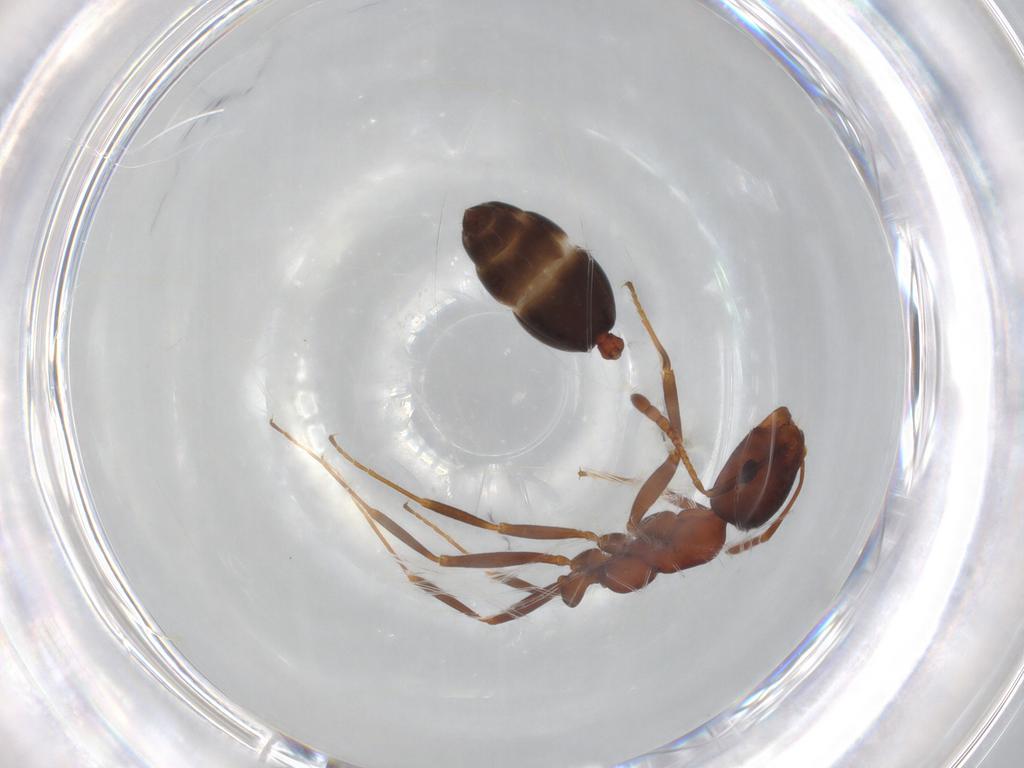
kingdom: Animalia
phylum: Arthropoda
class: Insecta
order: Hymenoptera
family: Formicidae
